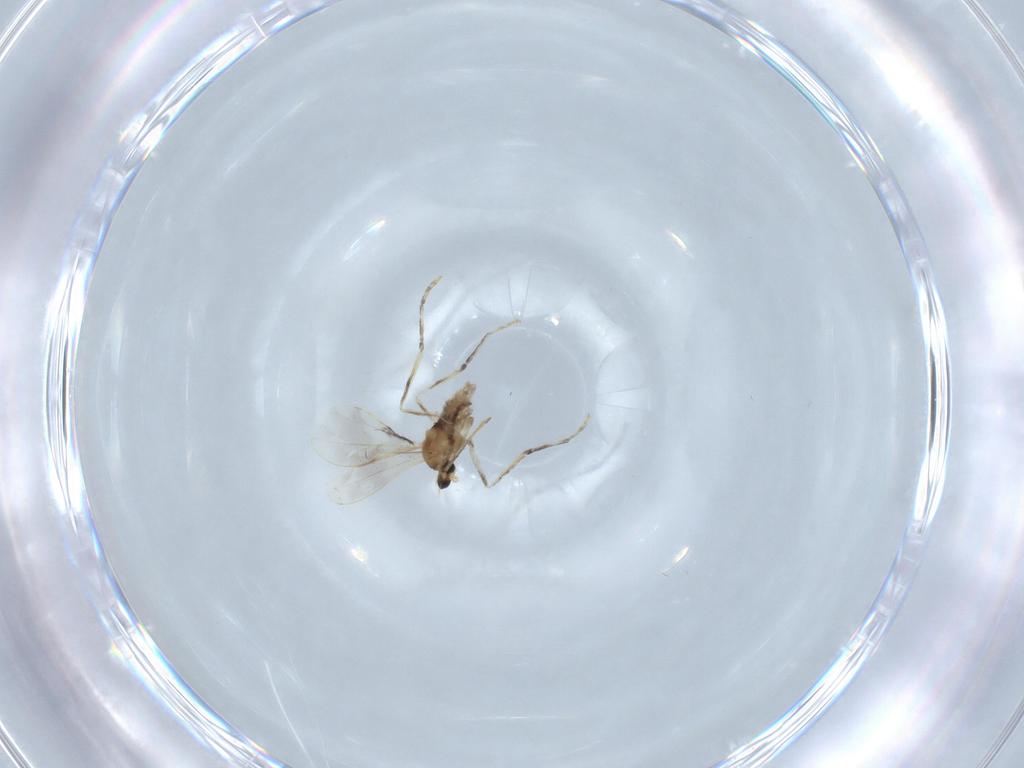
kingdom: Animalia
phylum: Arthropoda
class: Insecta
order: Diptera
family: Cecidomyiidae
